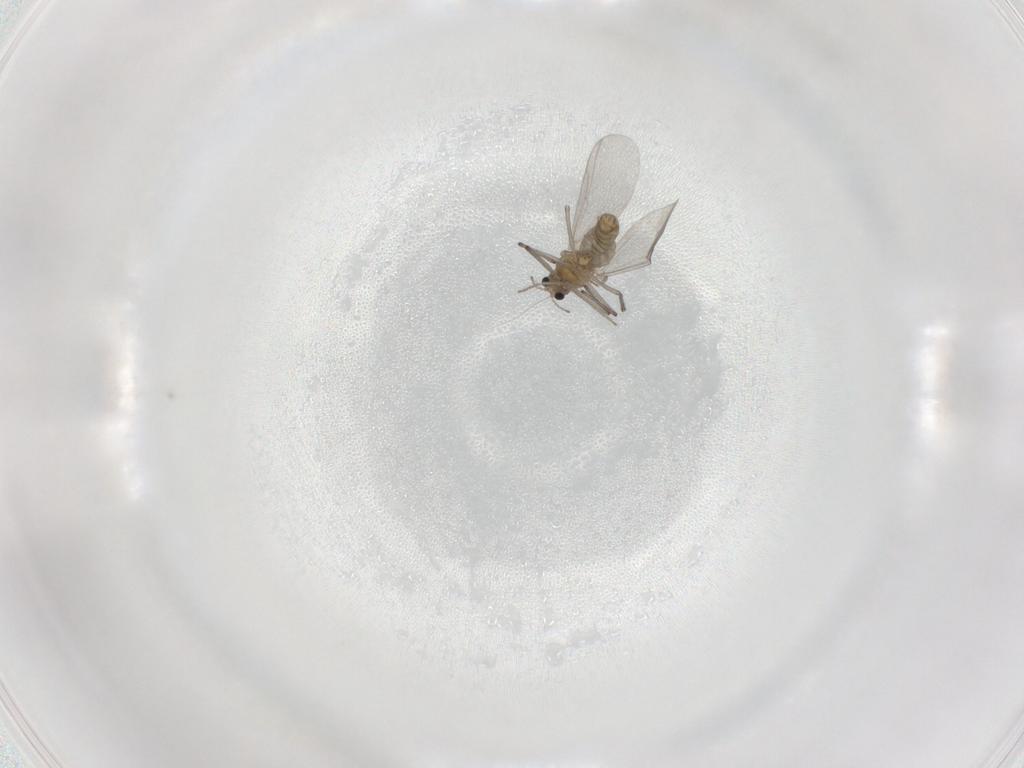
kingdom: Animalia
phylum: Arthropoda
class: Insecta
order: Diptera
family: Chironomidae
